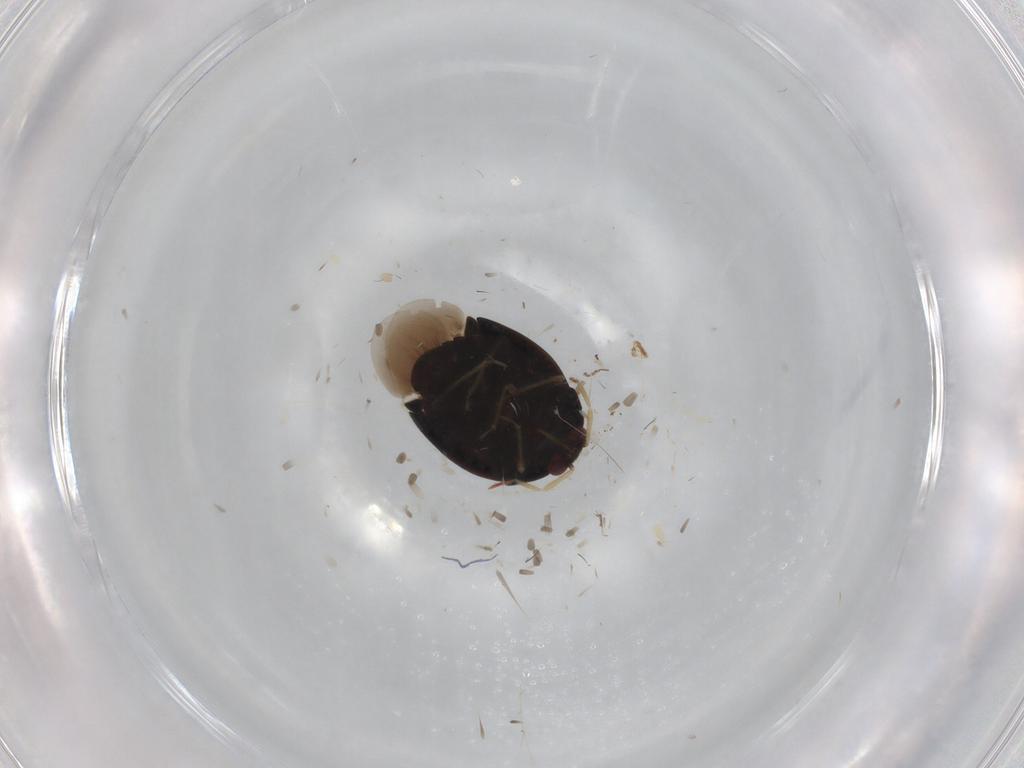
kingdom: Animalia
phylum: Arthropoda
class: Insecta
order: Hemiptera
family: Anthocoridae
